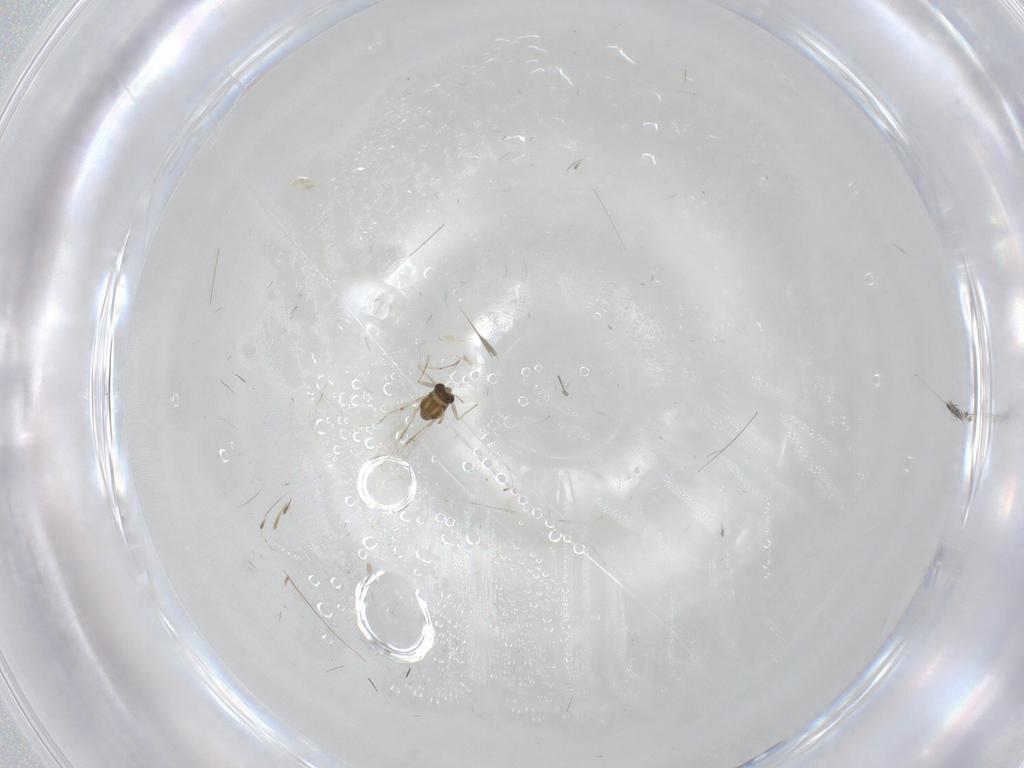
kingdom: Animalia
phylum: Arthropoda
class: Insecta
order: Diptera
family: Chironomidae
